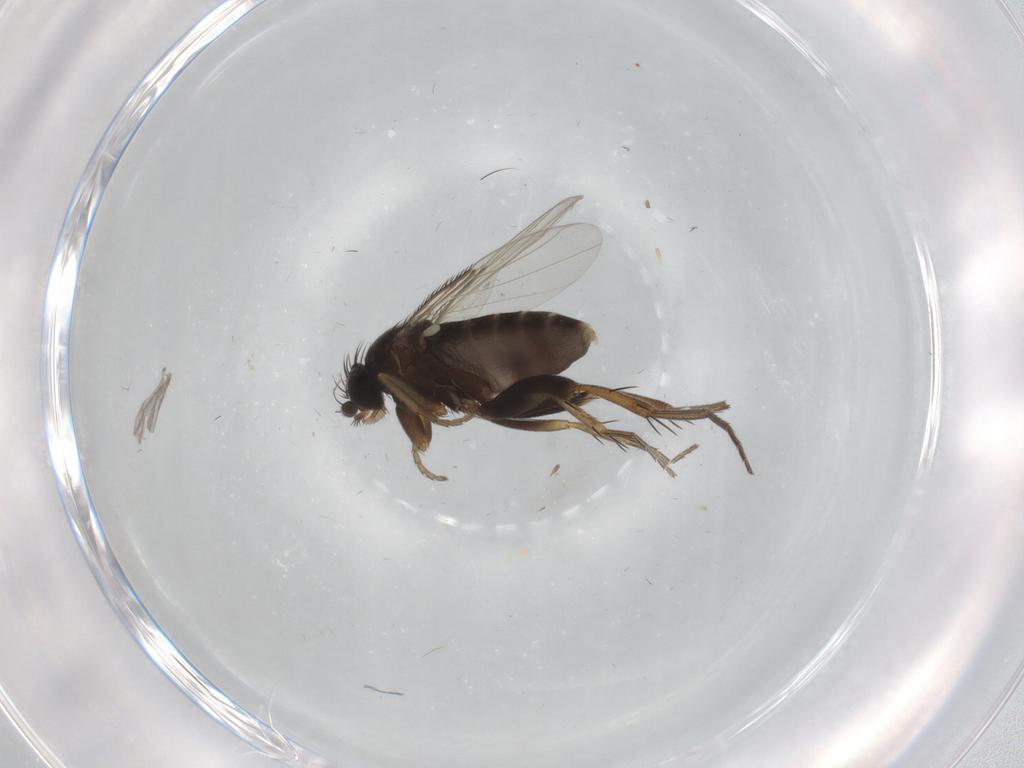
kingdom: Animalia
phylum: Arthropoda
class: Insecta
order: Diptera
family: Phoridae
